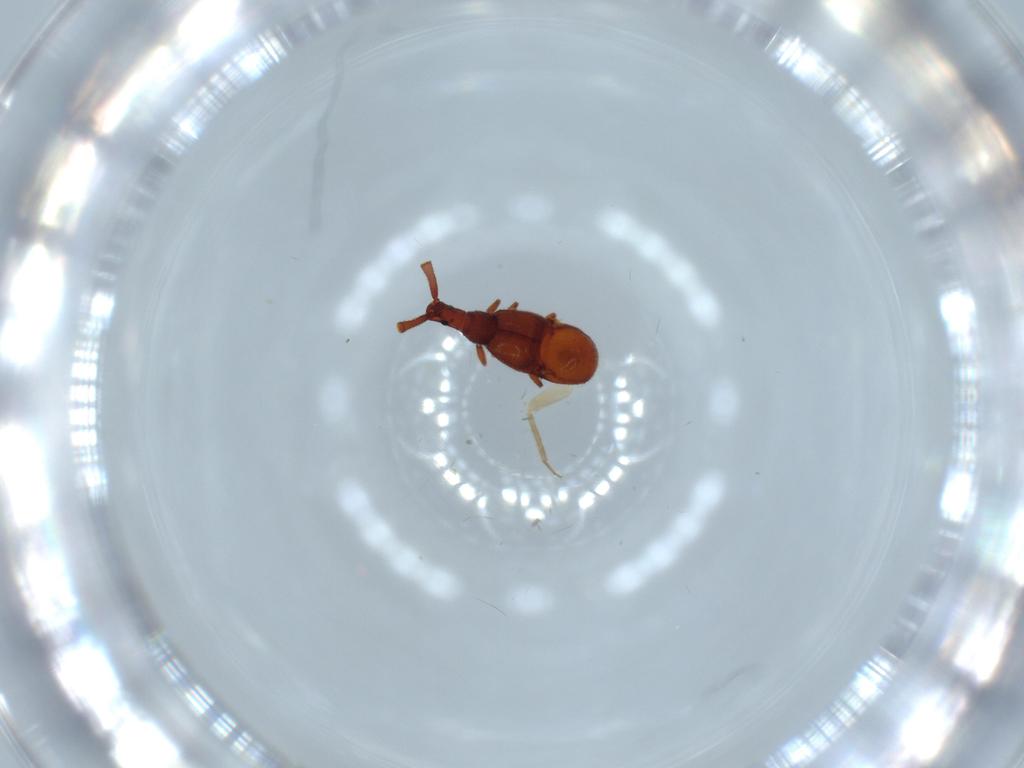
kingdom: Animalia
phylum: Arthropoda
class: Insecta
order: Coleoptera
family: Staphylinidae
